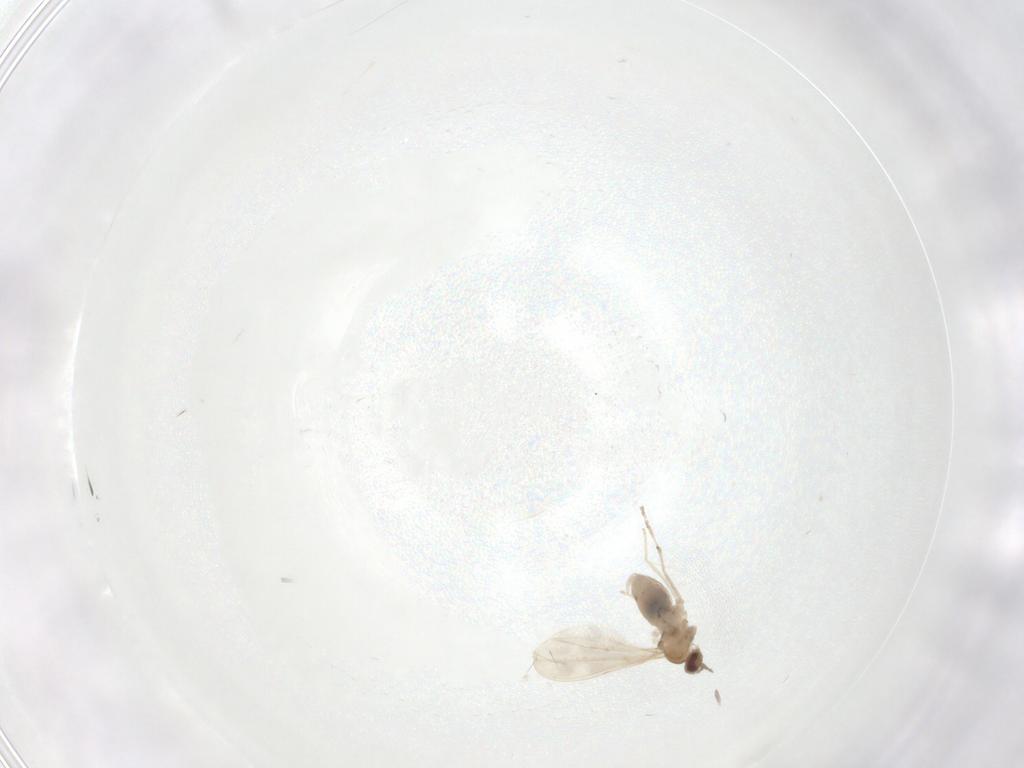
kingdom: Animalia
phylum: Arthropoda
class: Insecta
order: Diptera
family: Cecidomyiidae
